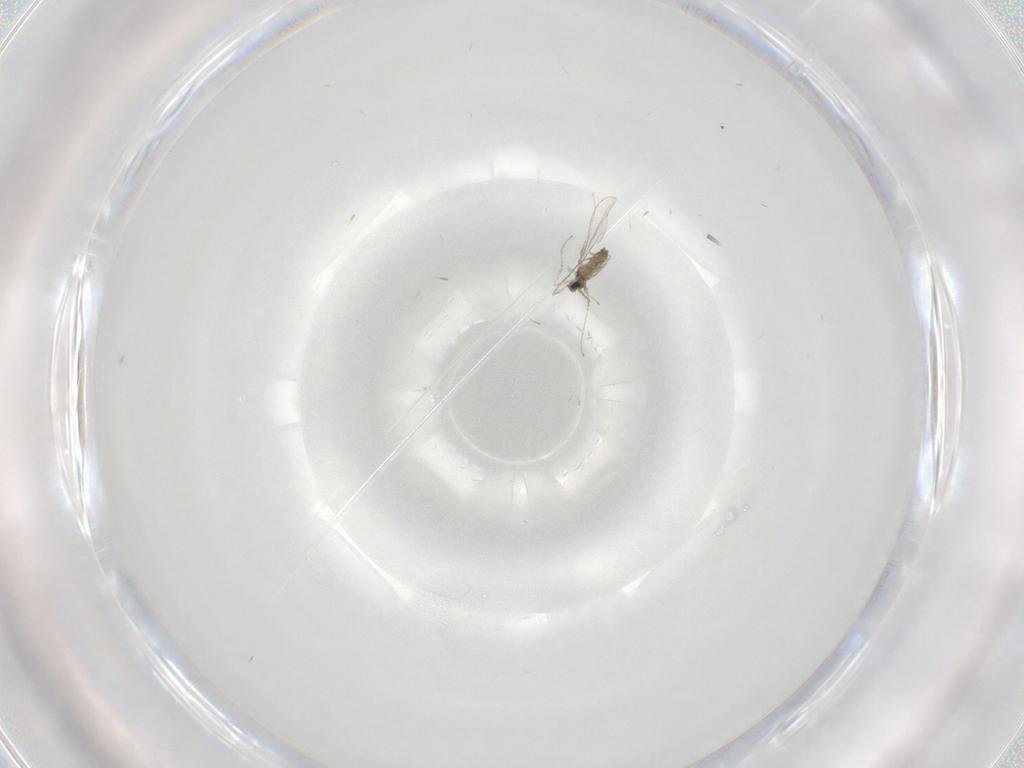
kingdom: Animalia
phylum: Arthropoda
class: Insecta
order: Diptera
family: Cecidomyiidae
